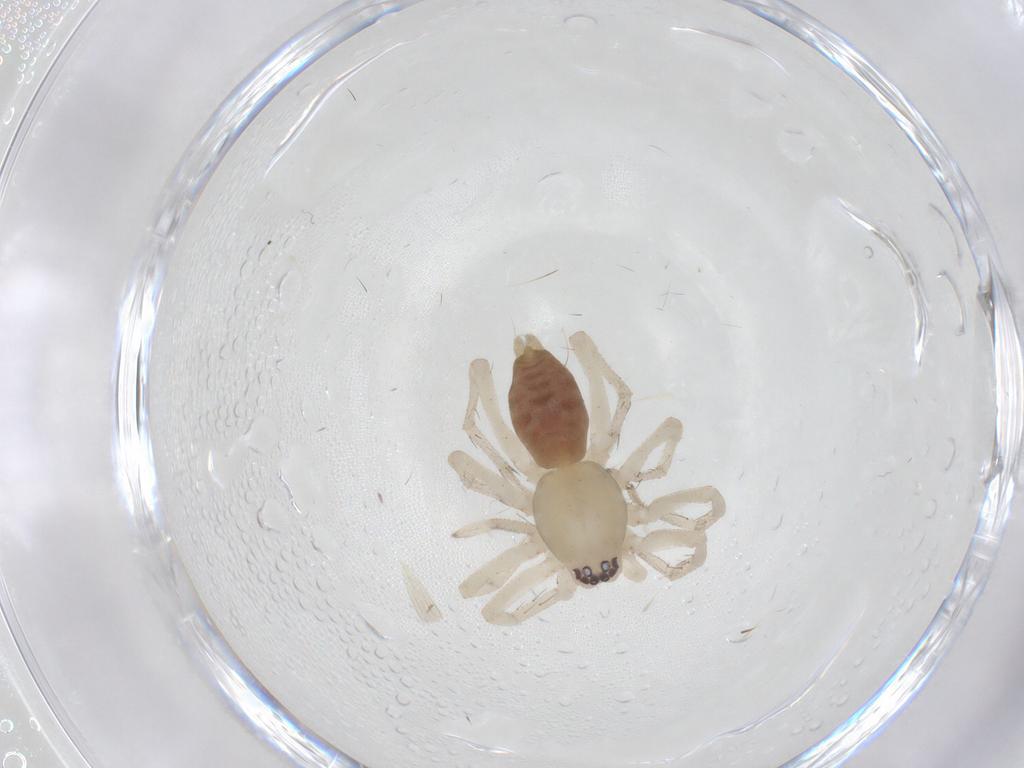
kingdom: Animalia
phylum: Arthropoda
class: Arachnida
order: Araneae
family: Clubionidae
